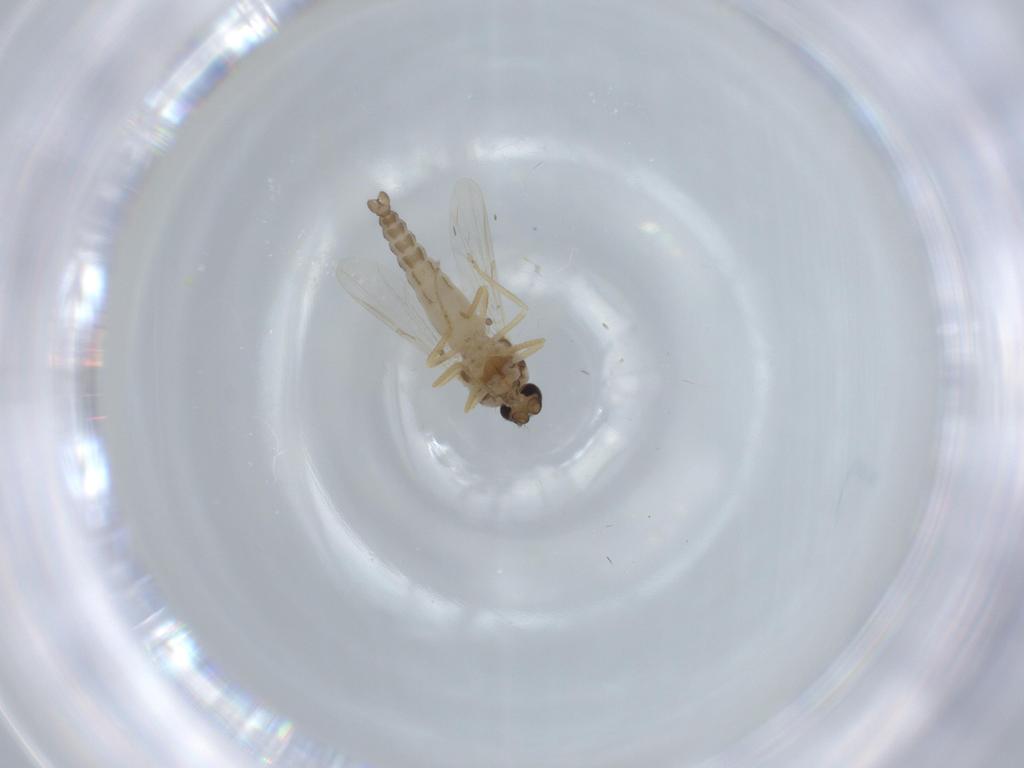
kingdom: Animalia
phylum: Arthropoda
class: Insecta
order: Diptera
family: Ceratopogonidae
